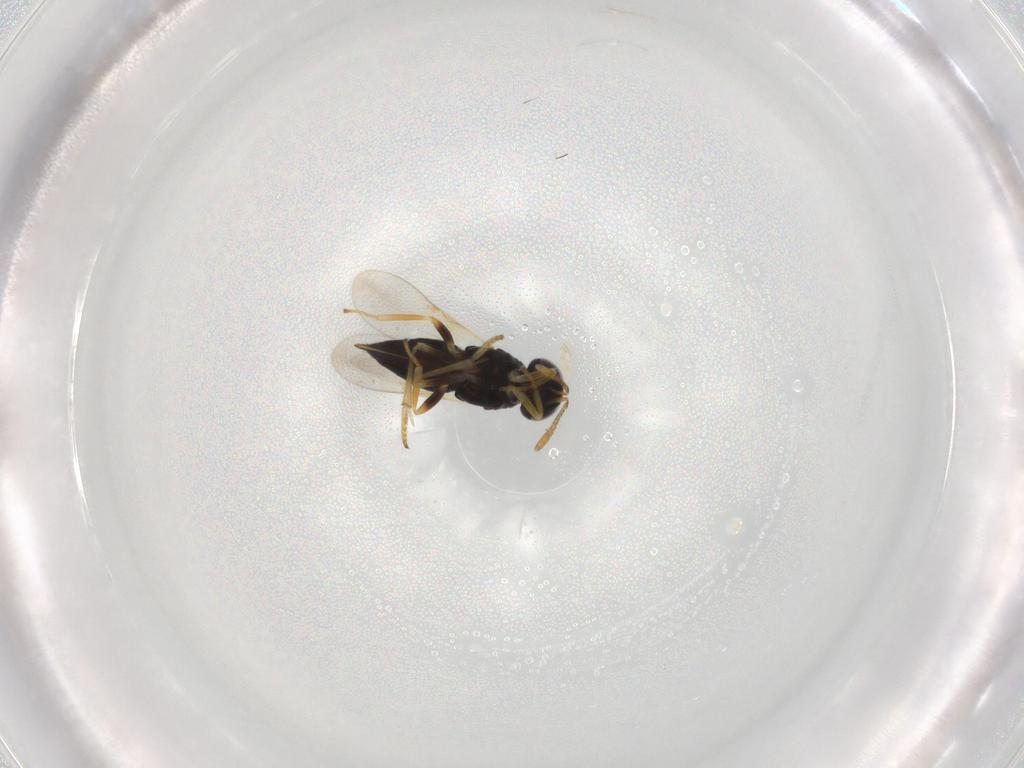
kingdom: Animalia
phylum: Arthropoda
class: Insecta
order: Hymenoptera
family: Encyrtidae
